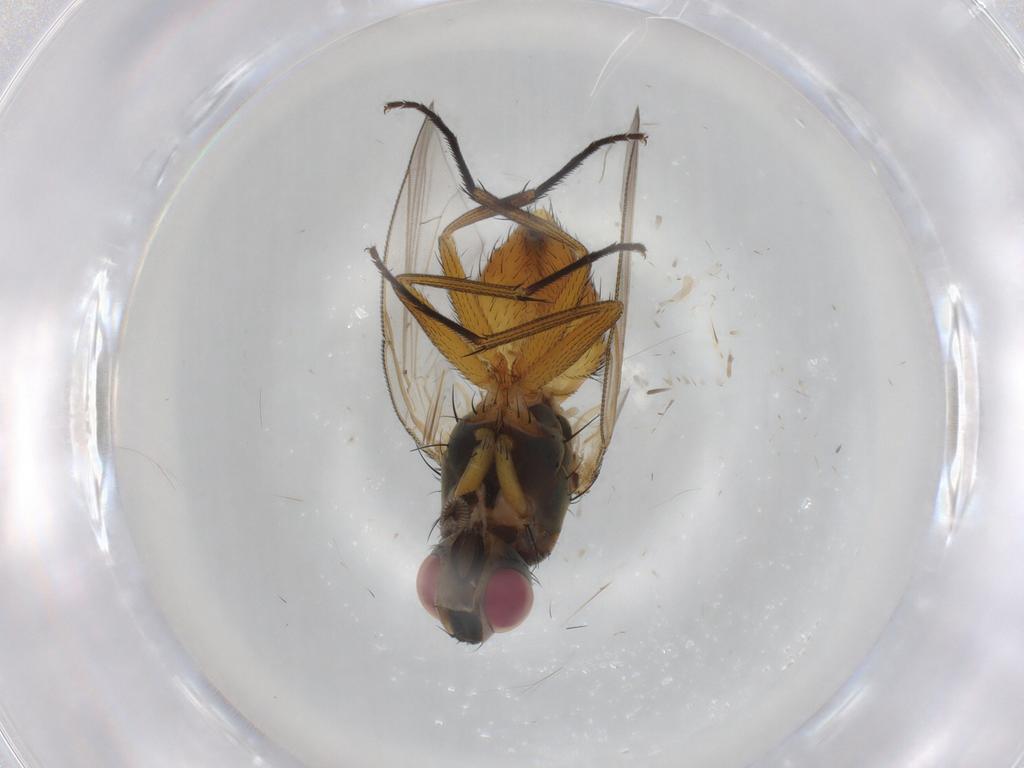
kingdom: Animalia
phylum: Arthropoda
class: Insecta
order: Diptera
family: Muscidae
